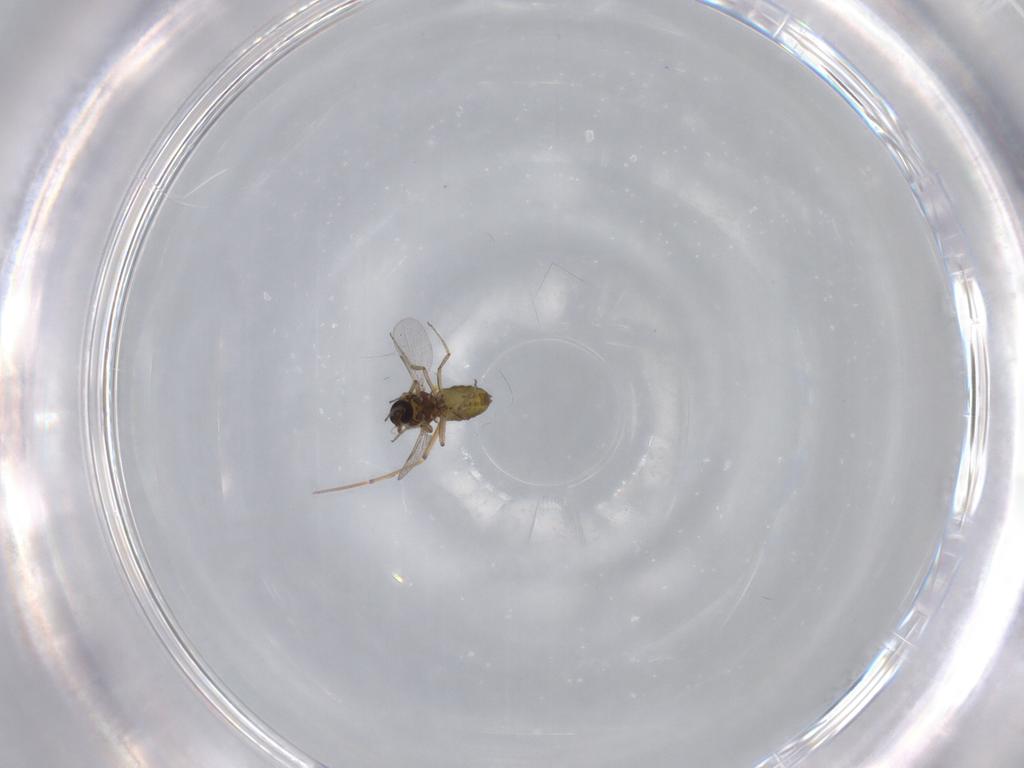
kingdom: Animalia
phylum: Arthropoda
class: Insecta
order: Diptera
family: Ceratopogonidae
